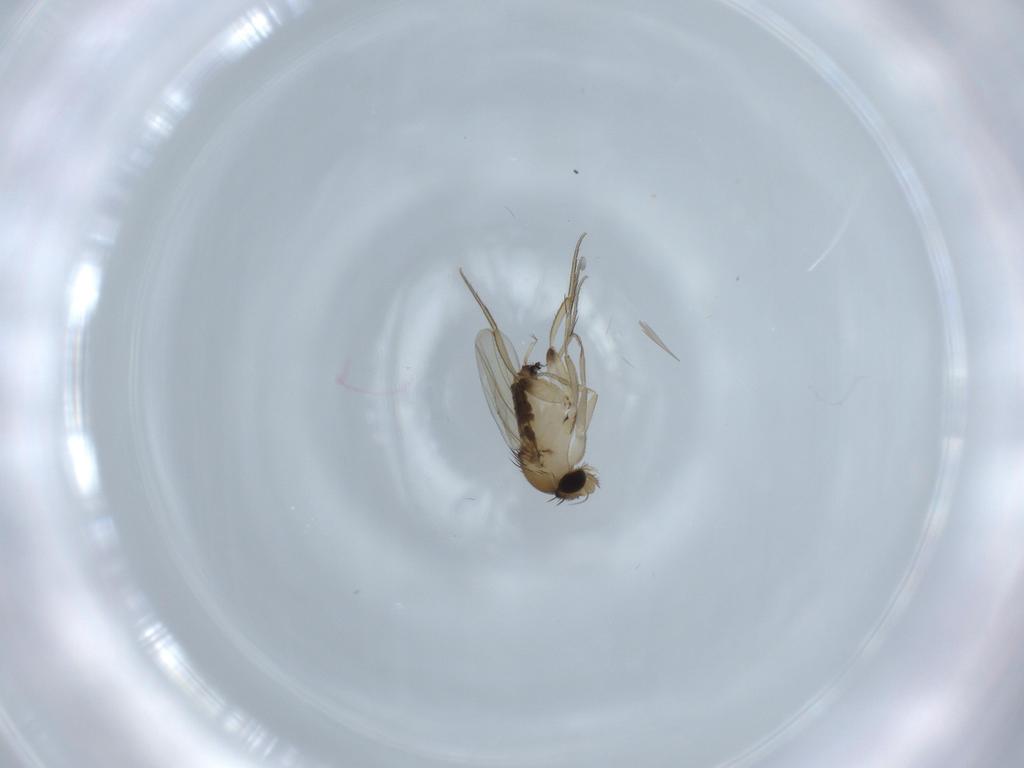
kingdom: Animalia
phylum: Arthropoda
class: Insecta
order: Diptera
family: Phoridae
